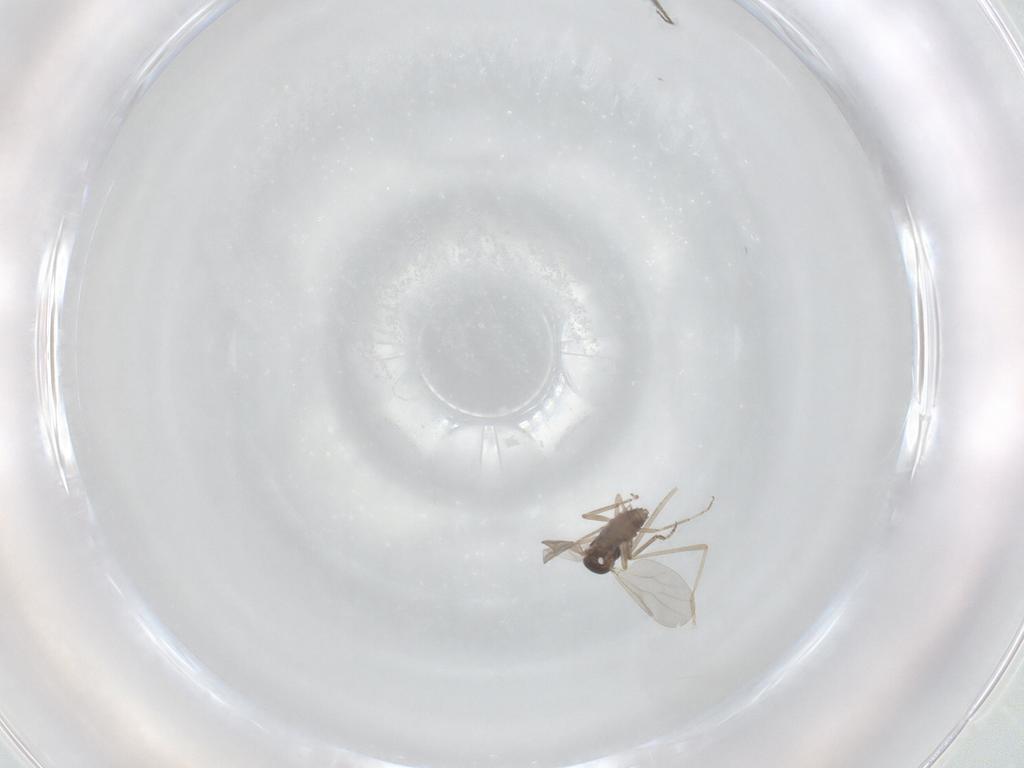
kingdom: Animalia
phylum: Arthropoda
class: Insecta
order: Diptera
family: Ceratopogonidae
